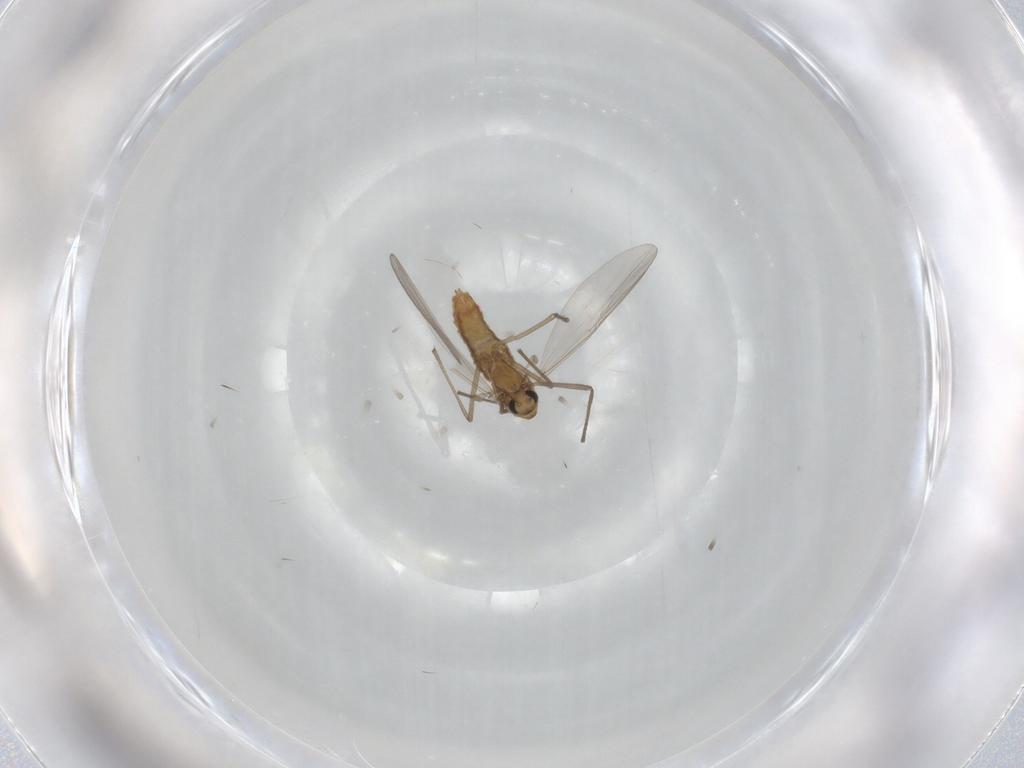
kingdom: Animalia
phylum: Arthropoda
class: Insecta
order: Diptera
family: Chironomidae
